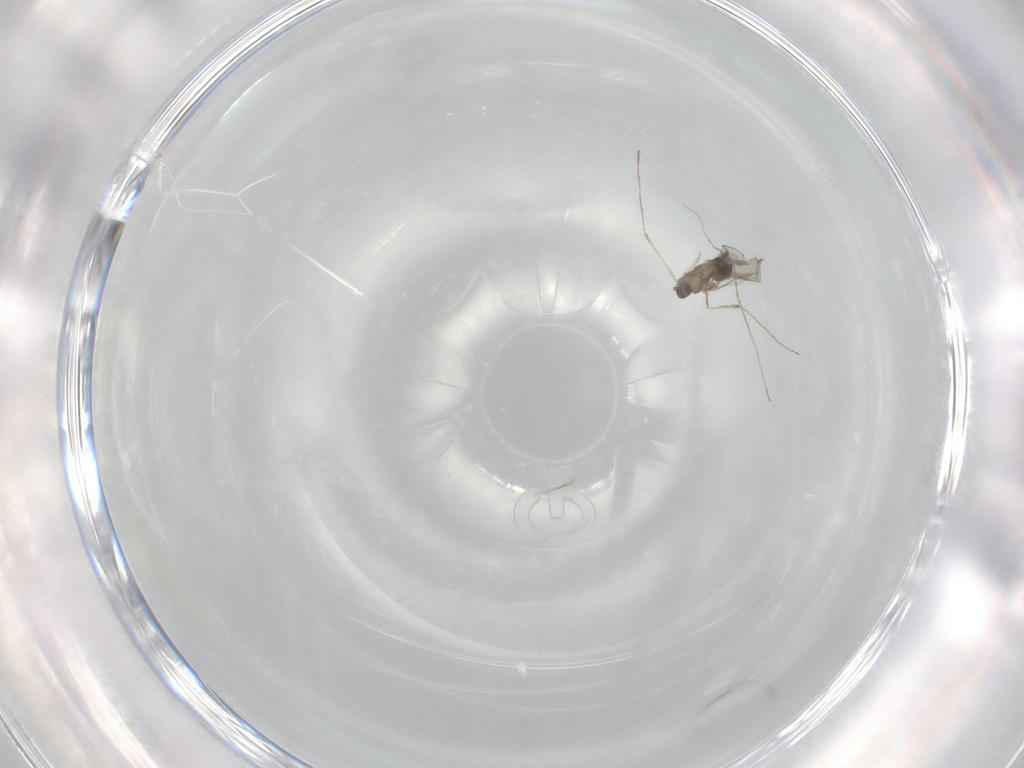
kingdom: Animalia
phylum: Arthropoda
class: Insecta
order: Diptera
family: Cecidomyiidae
